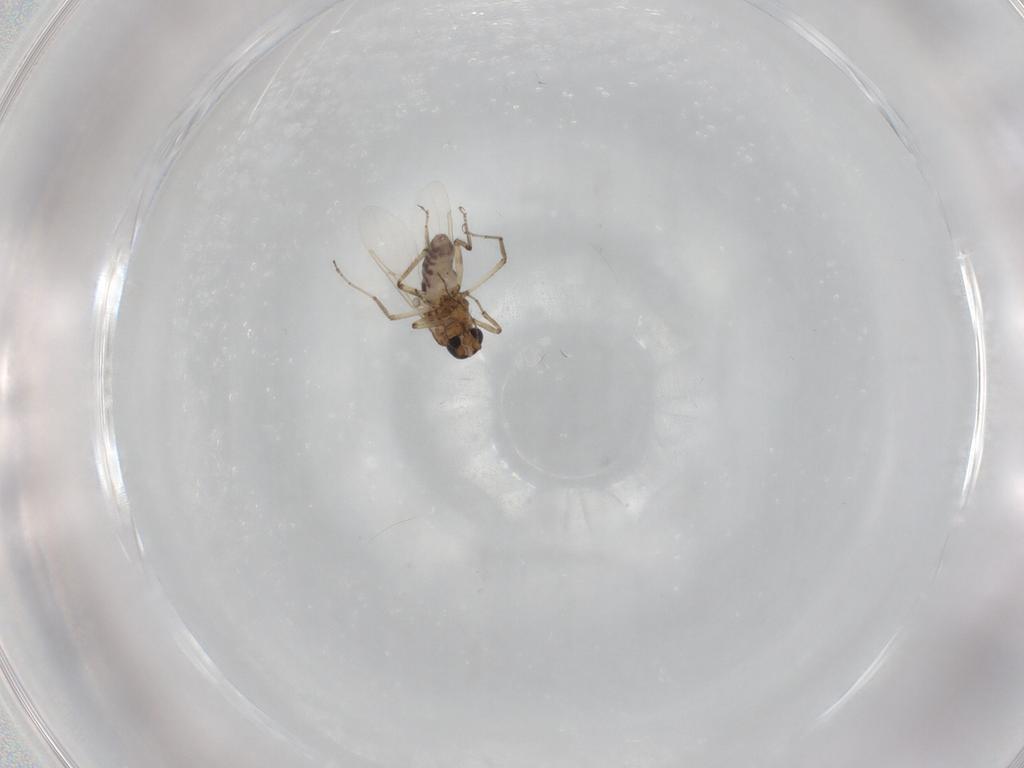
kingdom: Animalia
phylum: Arthropoda
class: Insecta
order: Diptera
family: Ceratopogonidae
